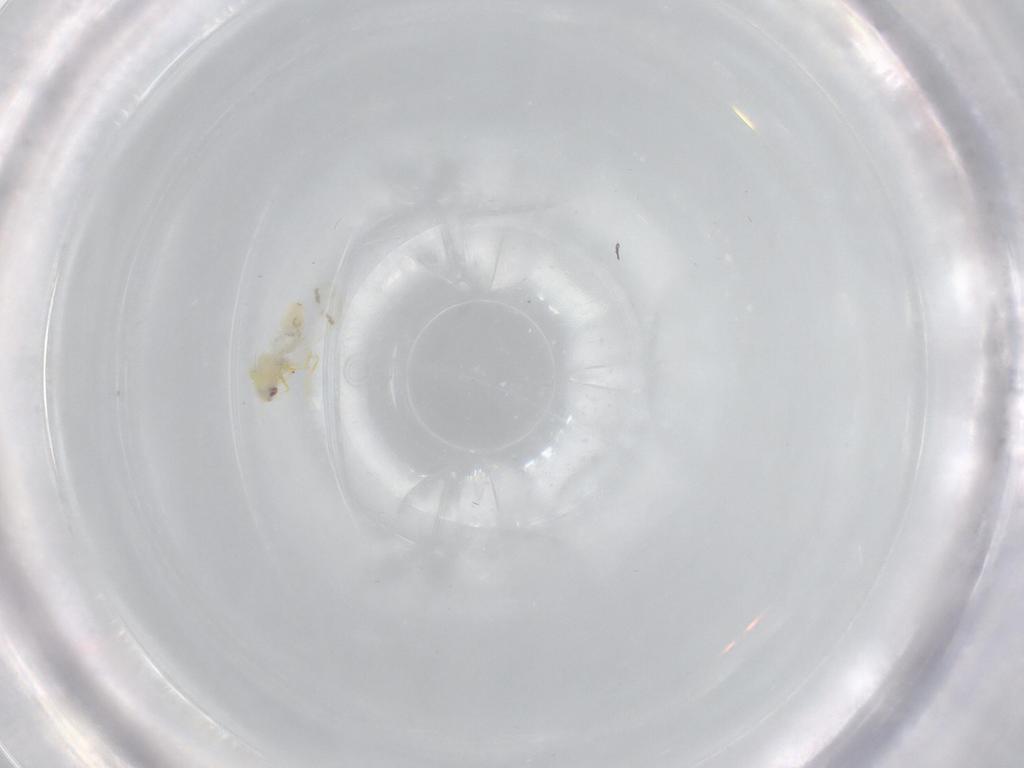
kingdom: Animalia
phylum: Arthropoda
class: Insecta
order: Hemiptera
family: Aleyrodidae
